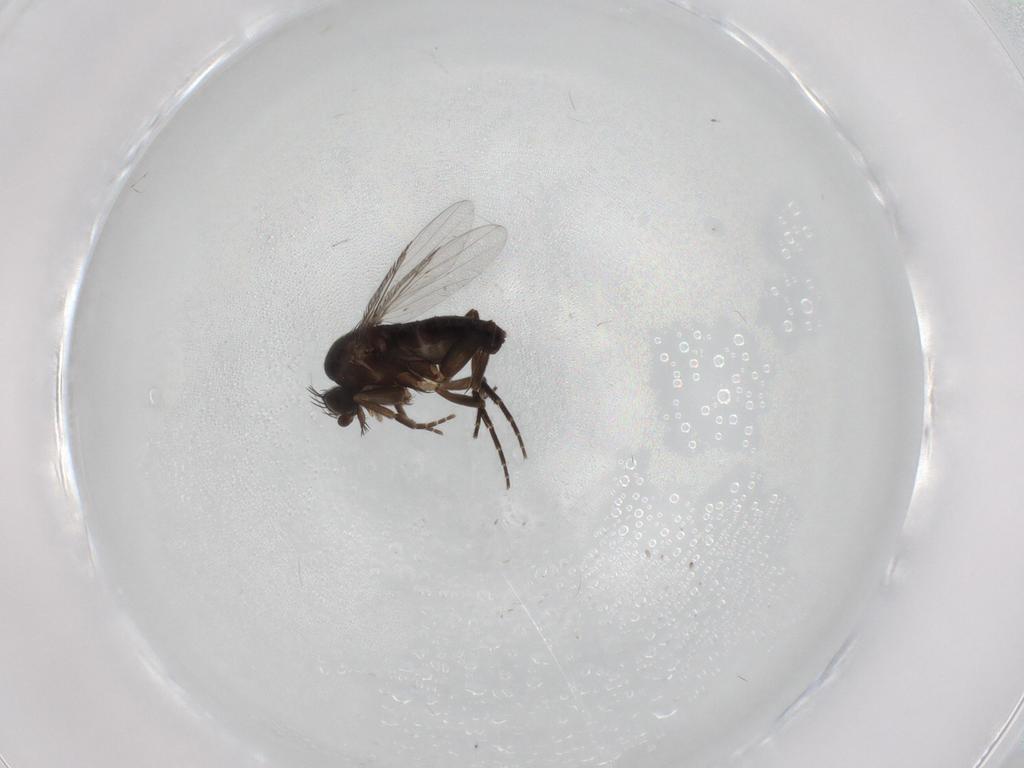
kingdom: Animalia
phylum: Arthropoda
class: Insecta
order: Diptera
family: Phoridae
